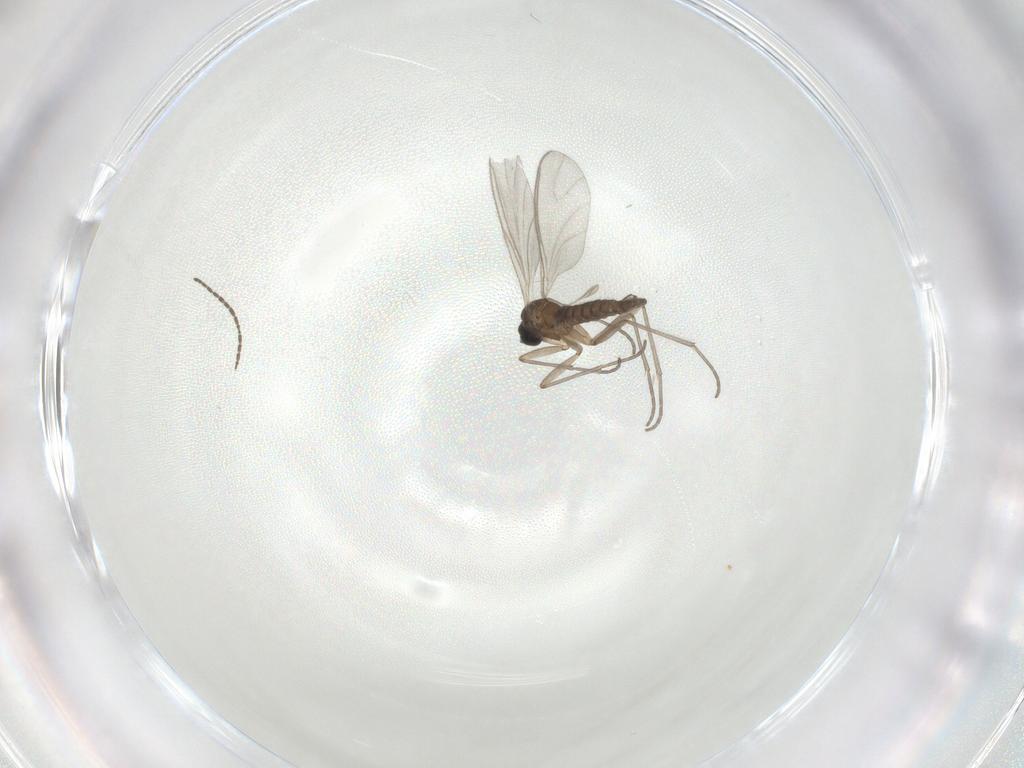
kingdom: Animalia
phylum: Arthropoda
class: Insecta
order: Diptera
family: Sciaridae
